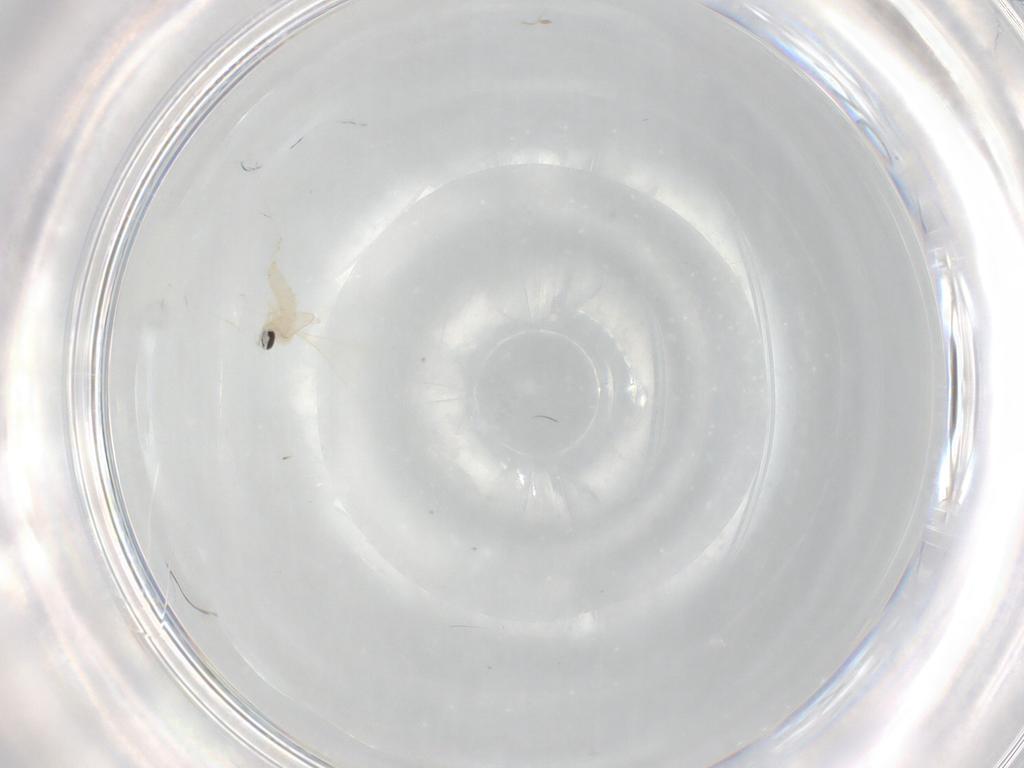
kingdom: Animalia
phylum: Arthropoda
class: Insecta
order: Diptera
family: Cecidomyiidae
